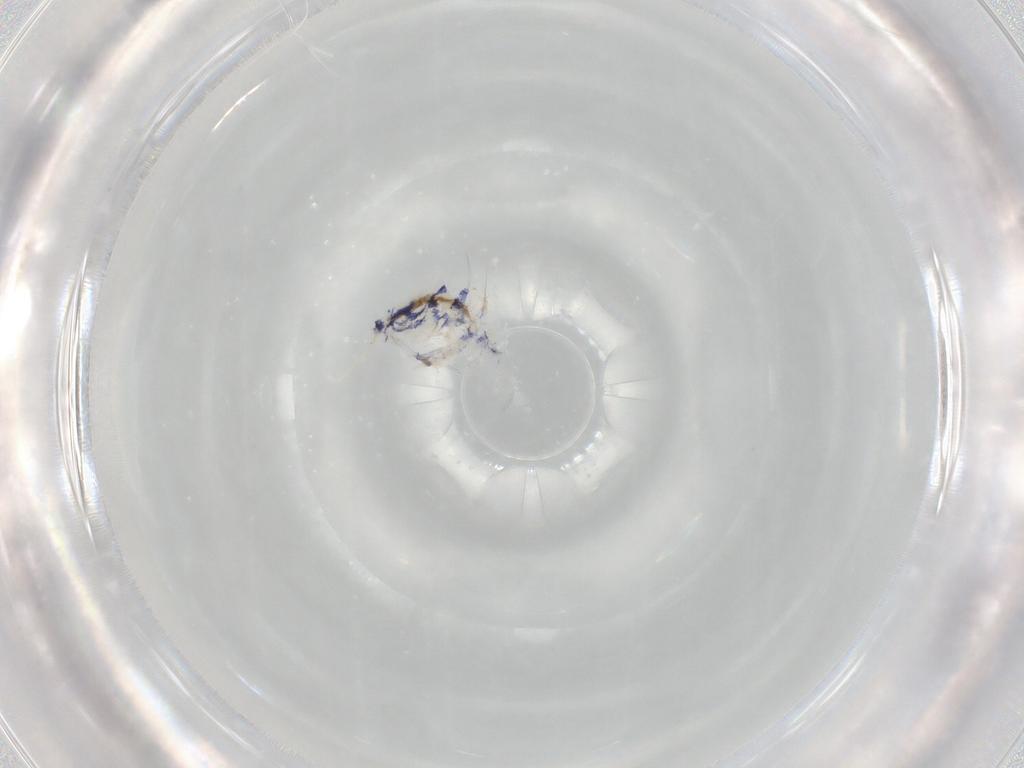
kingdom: Animalia
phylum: Arthropoda
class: Collembola
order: Entomobryomorpha
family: Entomobryidae
